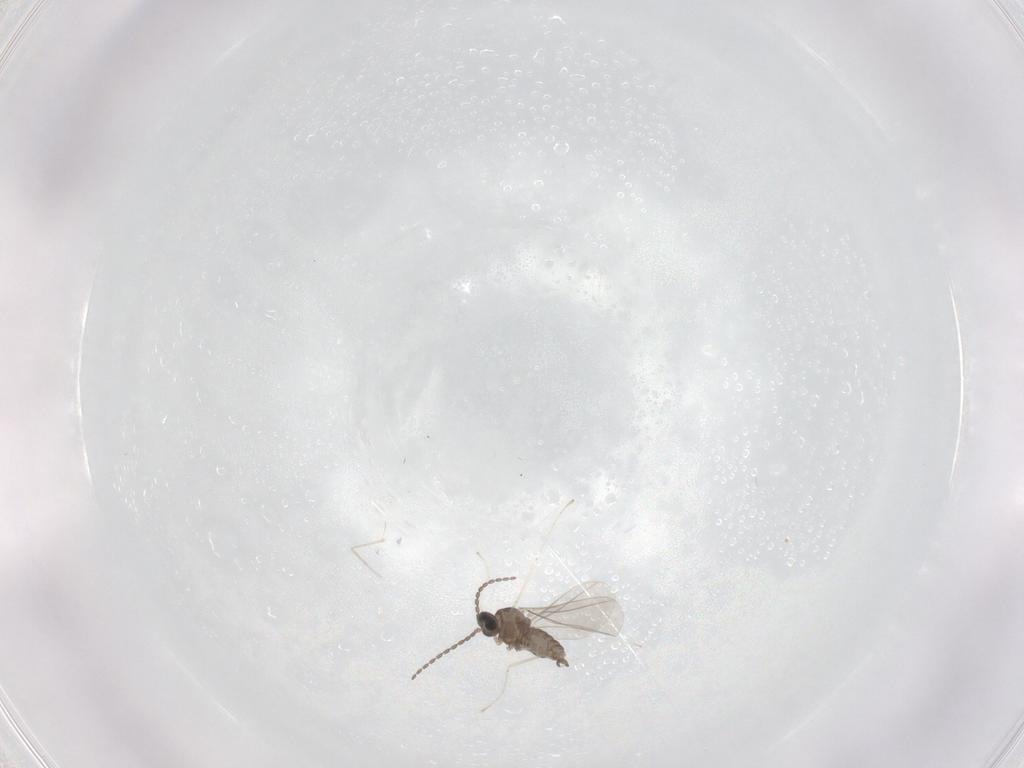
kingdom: Animalia
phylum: Arthropoda
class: Insecta
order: Diptera
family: Cecidomyiidae
